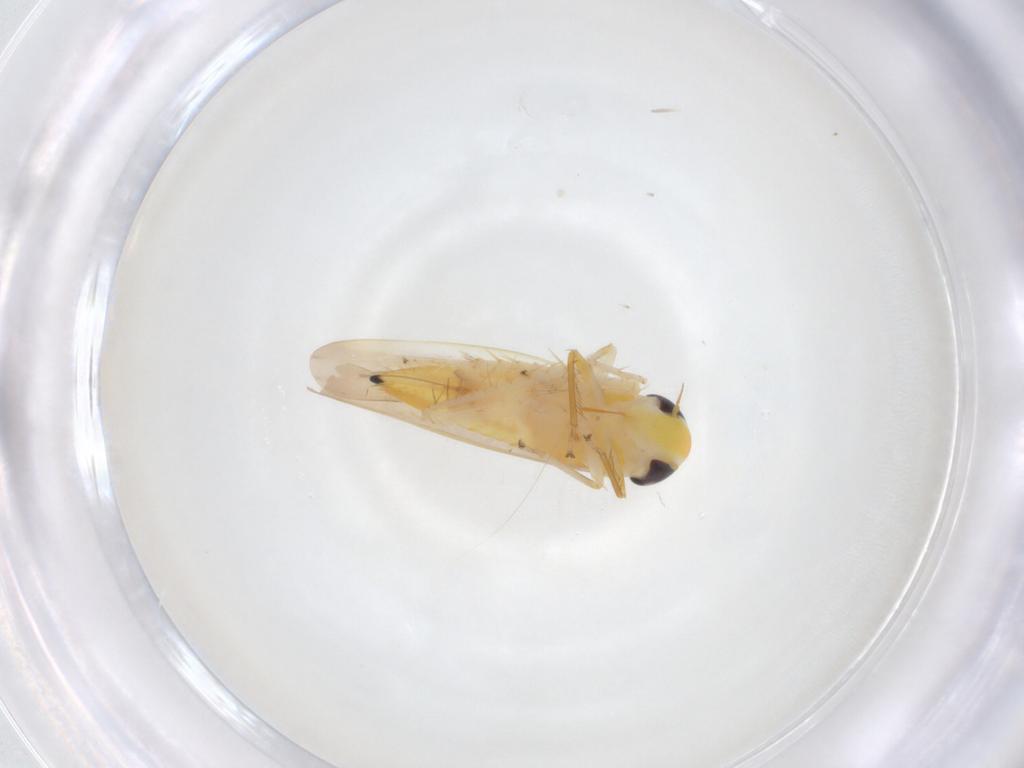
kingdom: Animalia
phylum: Arthropoda
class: Insecta
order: Hemiptera
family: Cicadellidae
